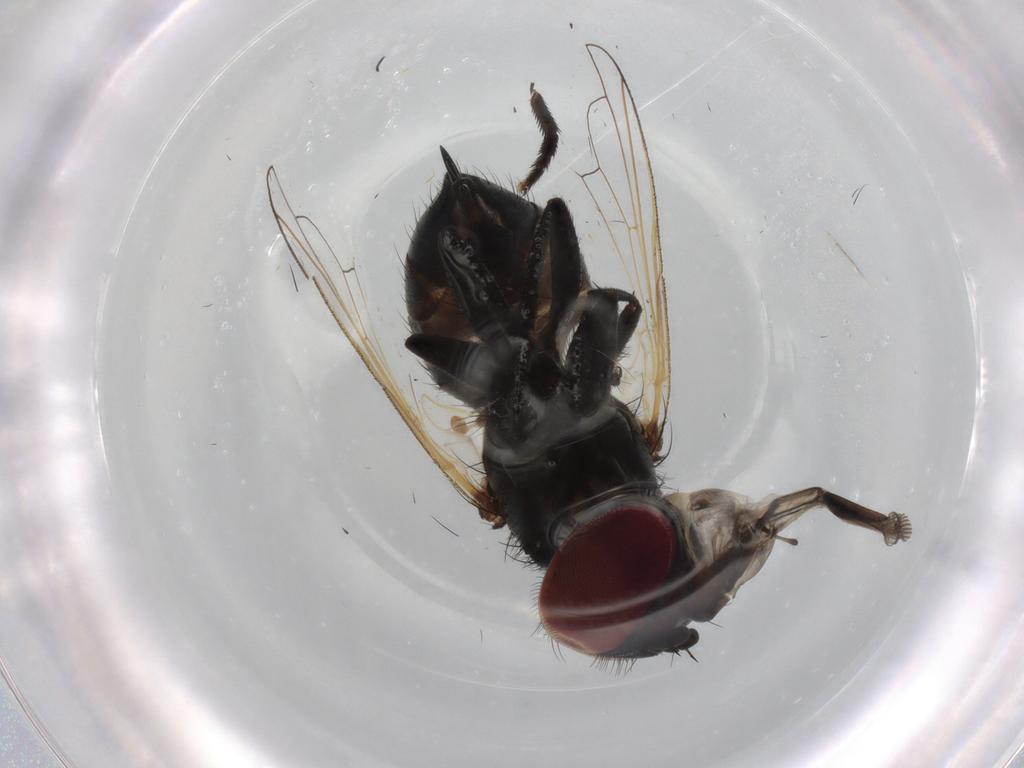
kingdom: Animalia
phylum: Arthropoda
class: Insecta
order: Diptera
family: Tachinidae
